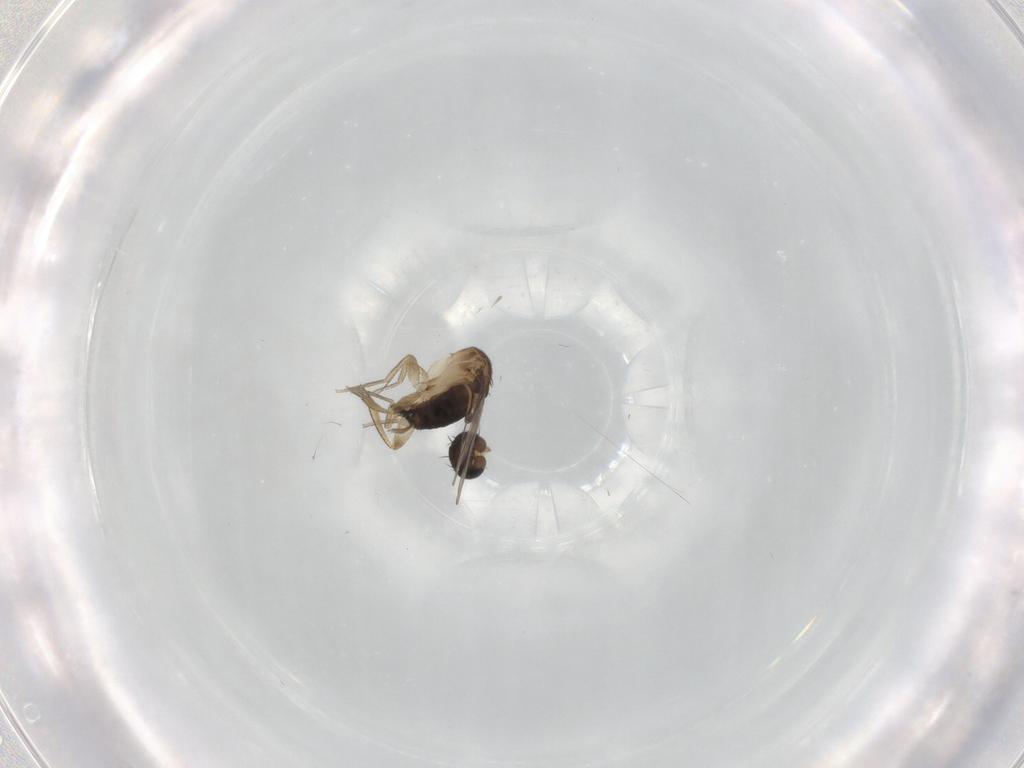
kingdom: Animalia
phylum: Arthropoda
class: Insecta
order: Diptera
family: Ceratopogonidae
